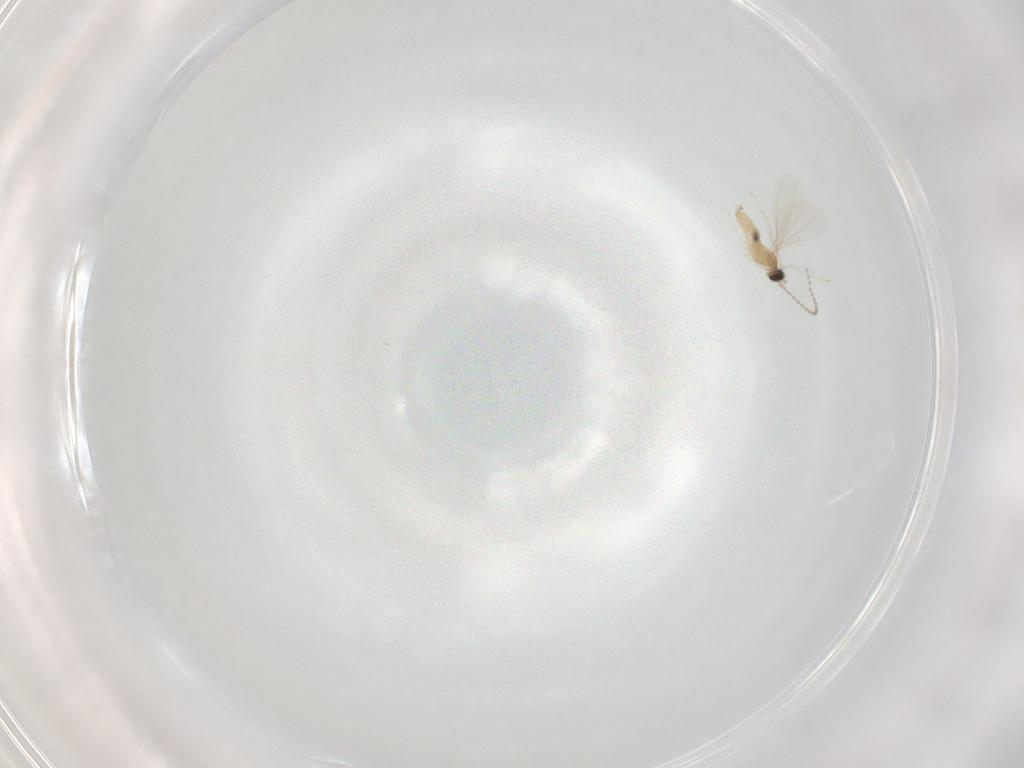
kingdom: Animalia
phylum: Arthropoda
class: Insecta
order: Diptera
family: Cecidomyiidae
